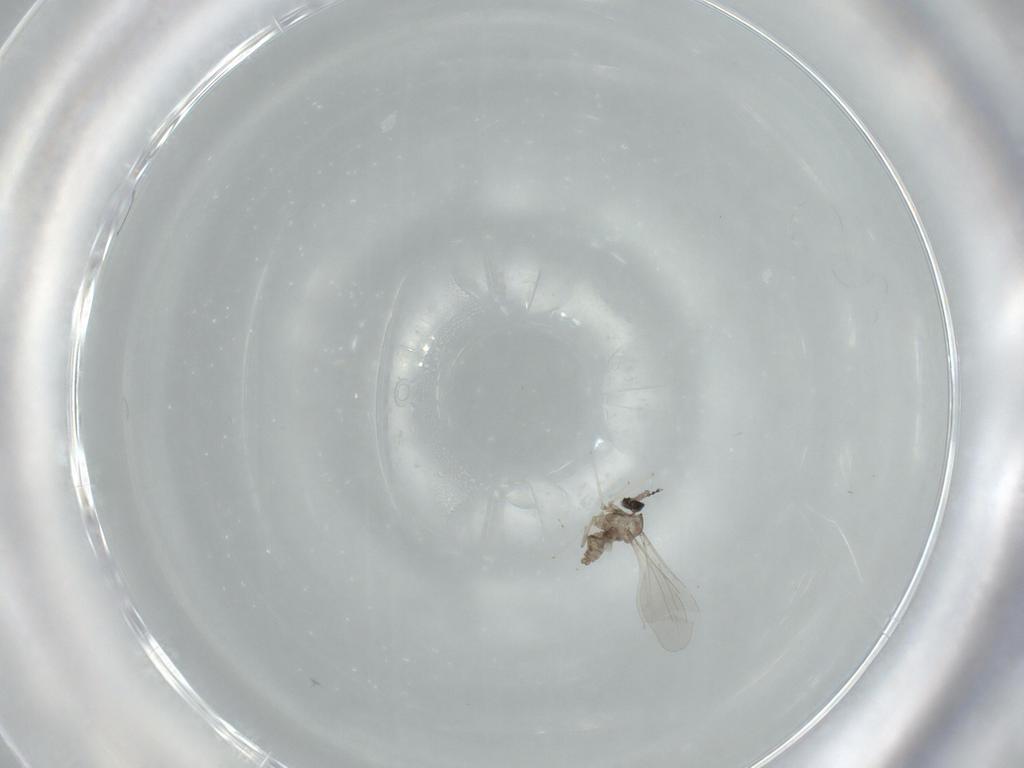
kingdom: Animalia
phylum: Arthropoda
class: Insecta
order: Diptera
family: Cecidomyiidae
